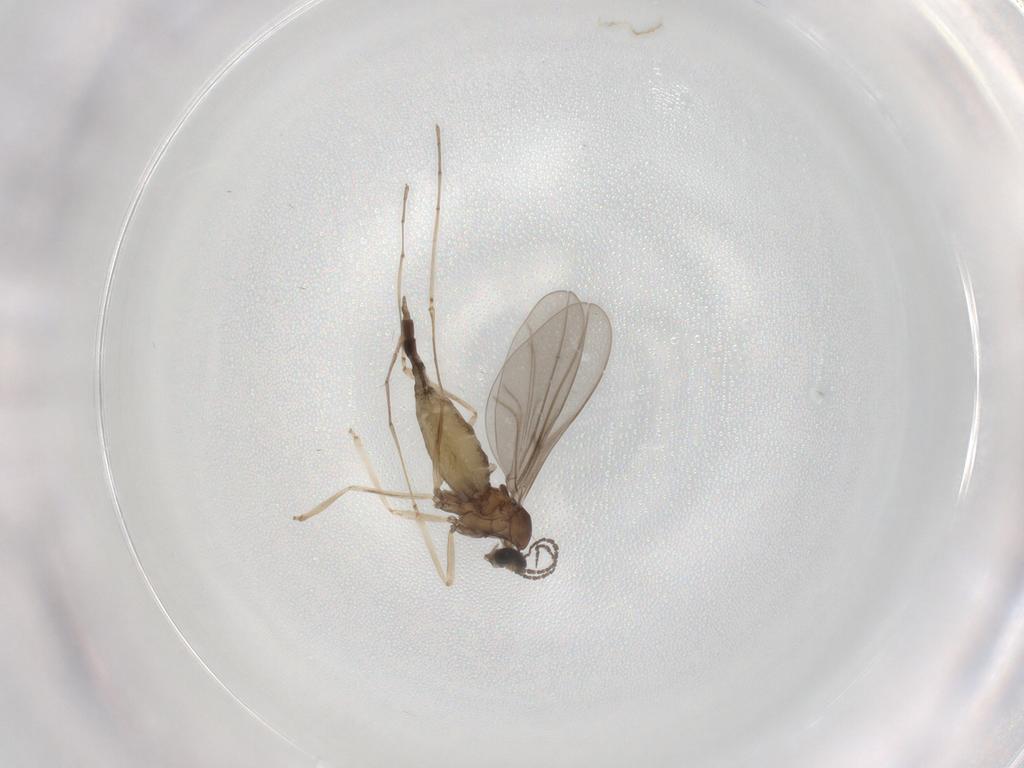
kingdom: Animalia
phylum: Arthropoda
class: Insecta
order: Diptera
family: Cecidomyiidae
